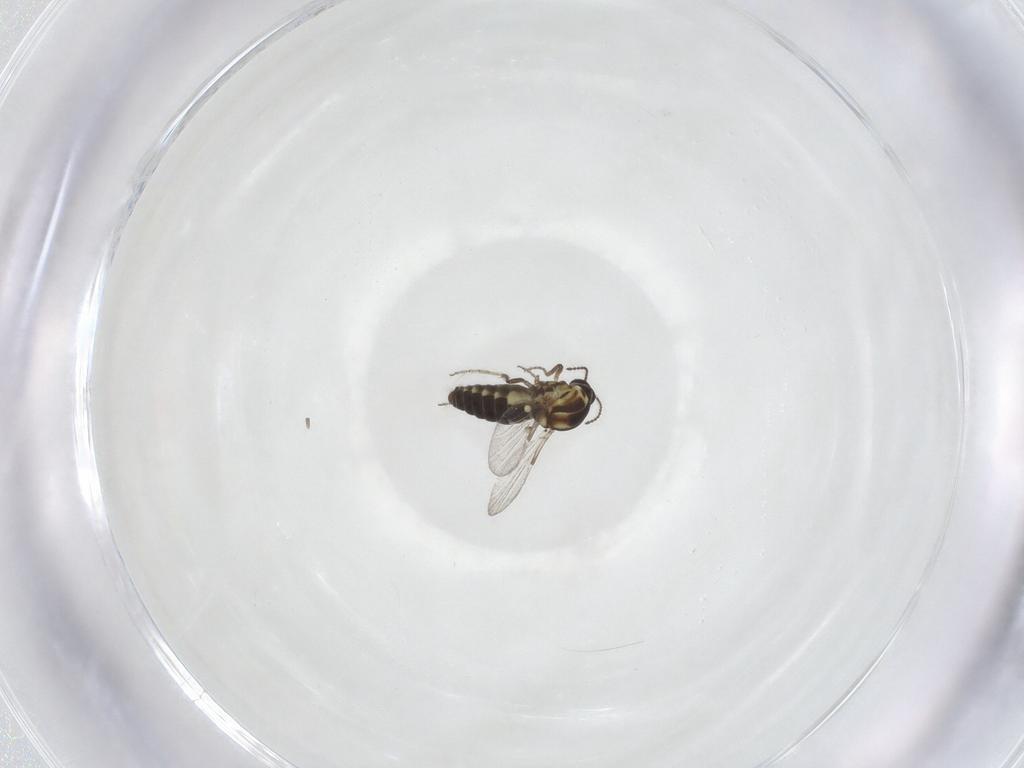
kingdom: Animalia
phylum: Arthropoda
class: Insecta
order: Diptera
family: Ceratopogonidae
